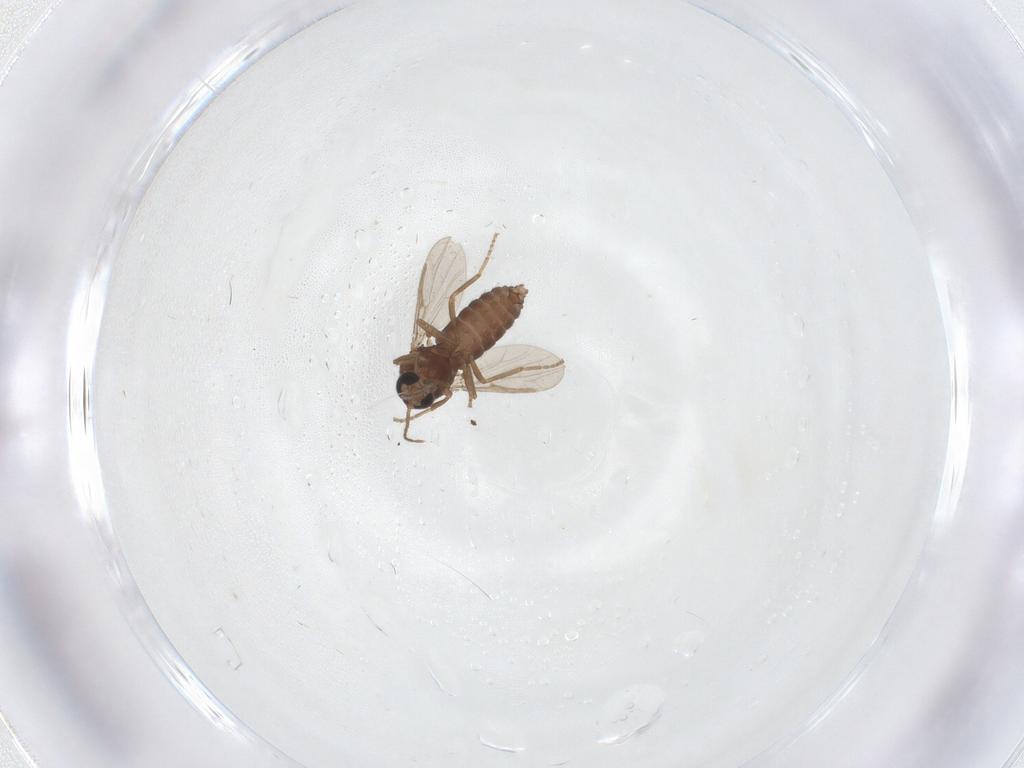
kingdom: Animalia
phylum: Arthropoda
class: Insecta
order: Diptera
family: Ceratopogonidae
